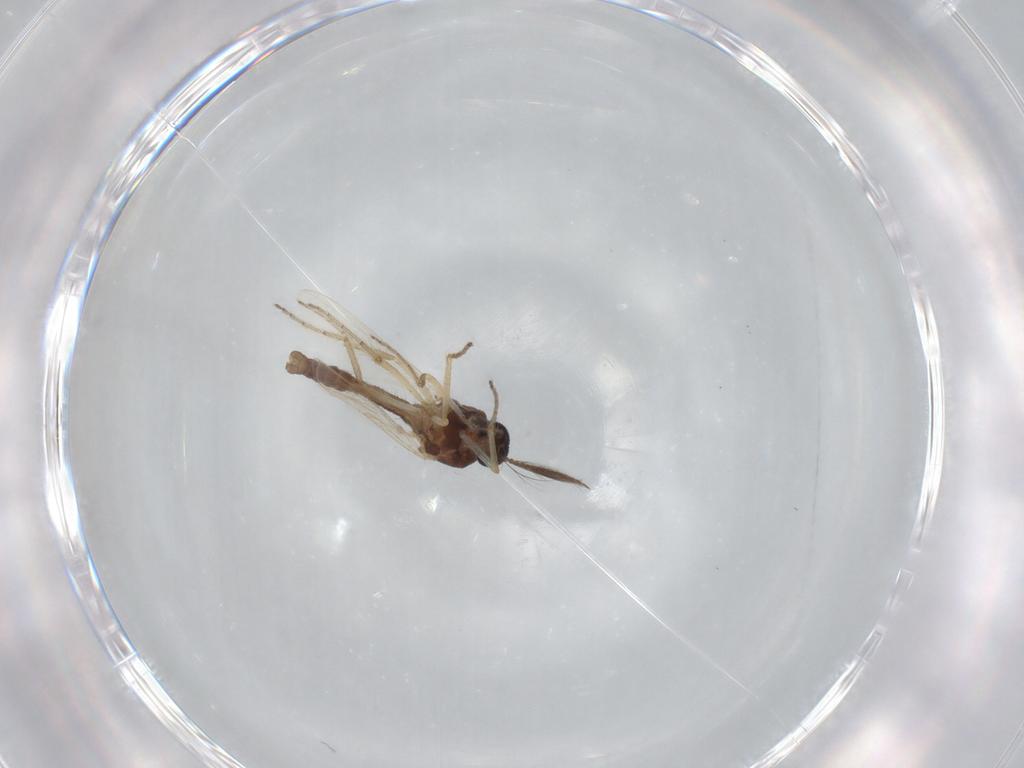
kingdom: Animalia
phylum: Arthropoda
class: Insecta
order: Diptera
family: Ceratopogonidae
